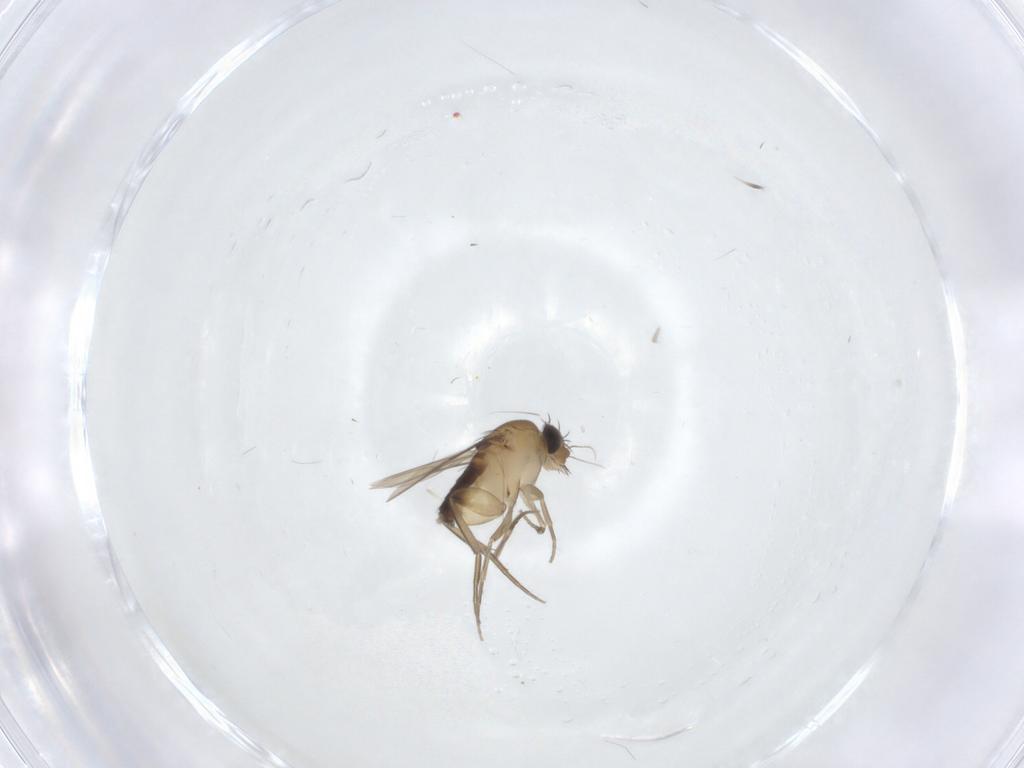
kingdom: Animalia
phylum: Arthropoda
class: Insecta
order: Diptera
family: Phoridae
